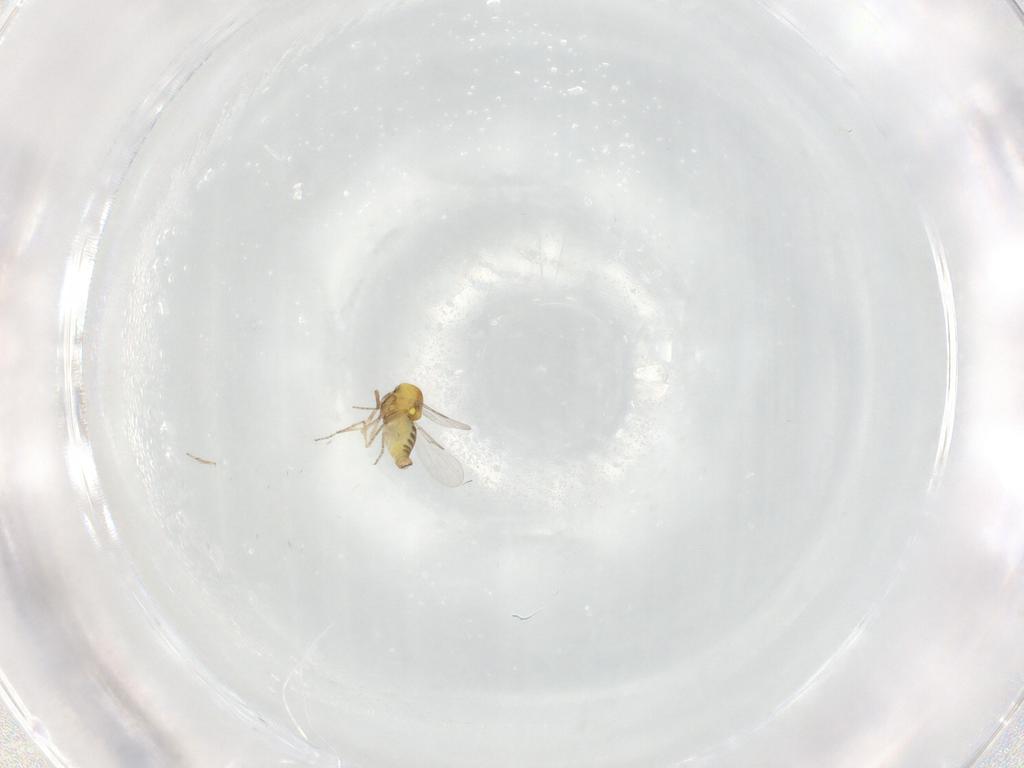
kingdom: Animalia
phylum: Arthropoda
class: Insecta
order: Diptera
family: Ceratopogonidae
